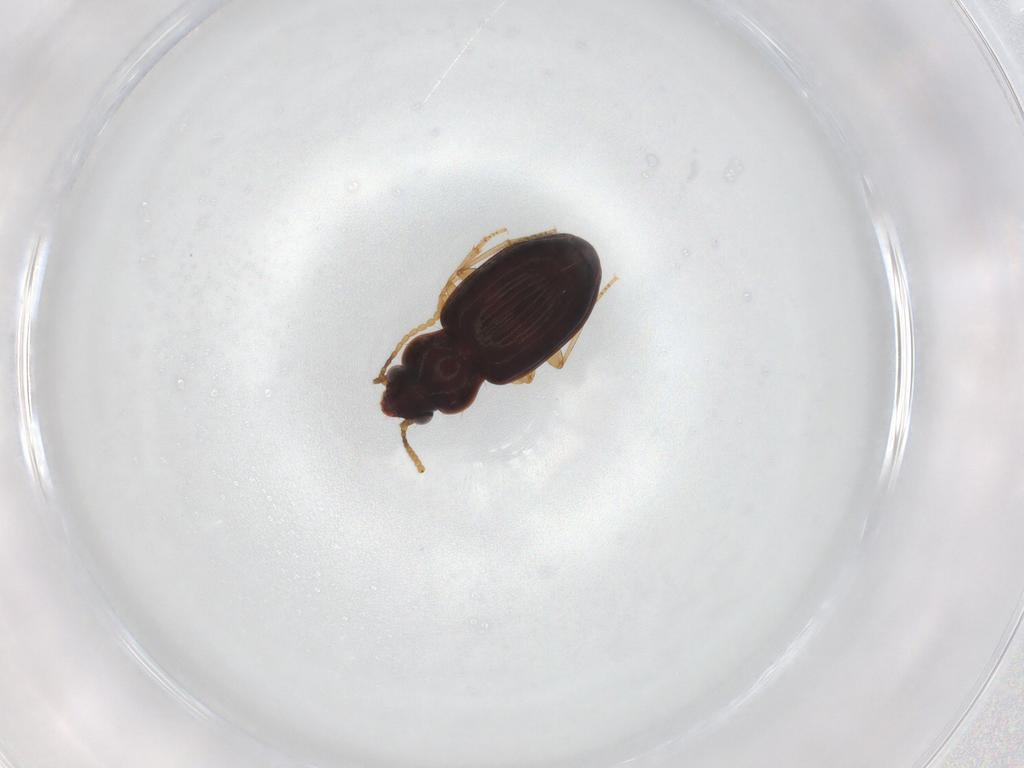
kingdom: Animalia
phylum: Arthropoda
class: Insecta
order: Coleoptera
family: Carabidae
